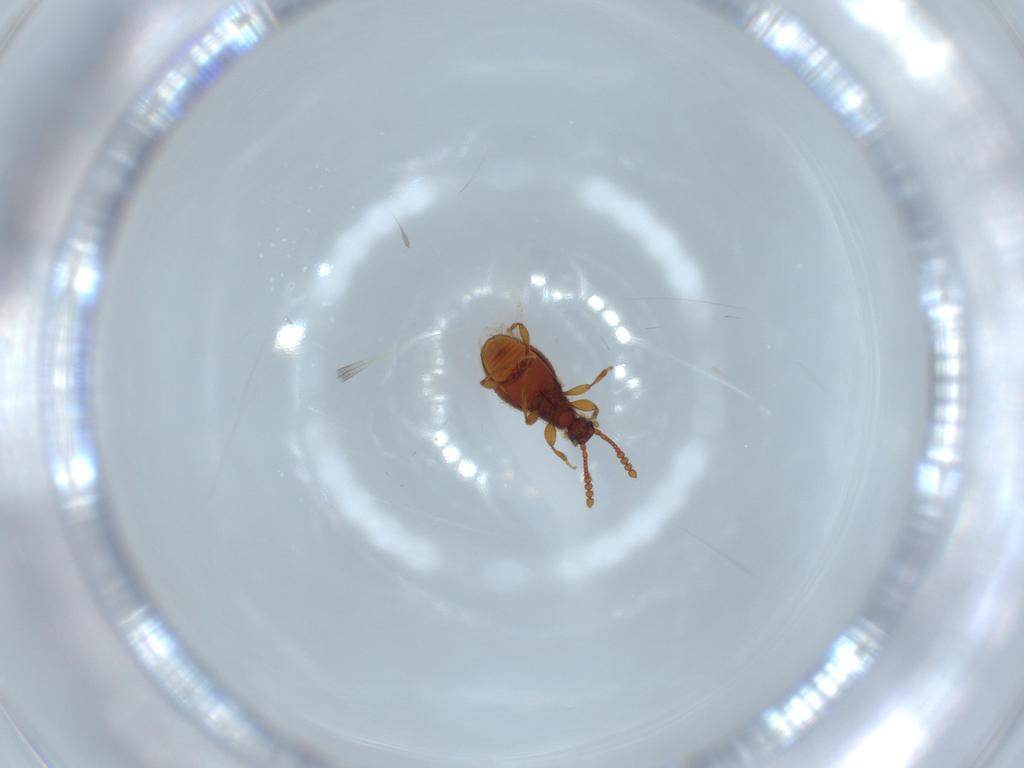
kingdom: Animalia
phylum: Arthropoda
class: Insecta
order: Coleoptera
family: Staphylinidae
